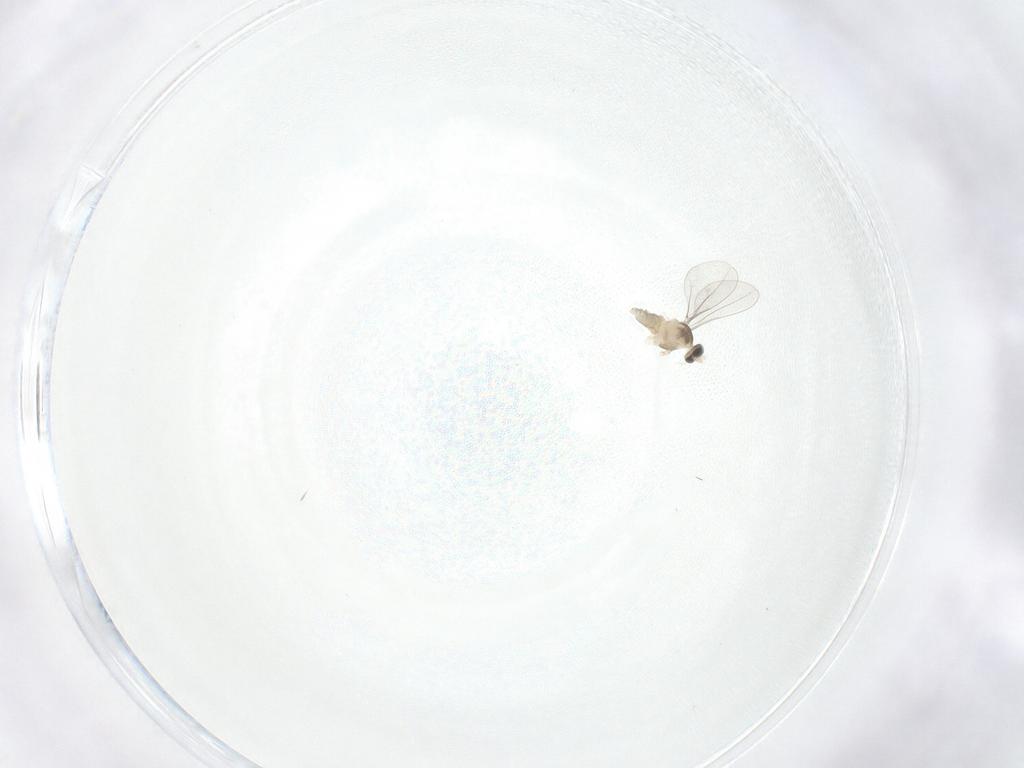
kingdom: Animalia
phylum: Arthropoda
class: Insecta
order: Diptera
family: Cecidomyiidae
